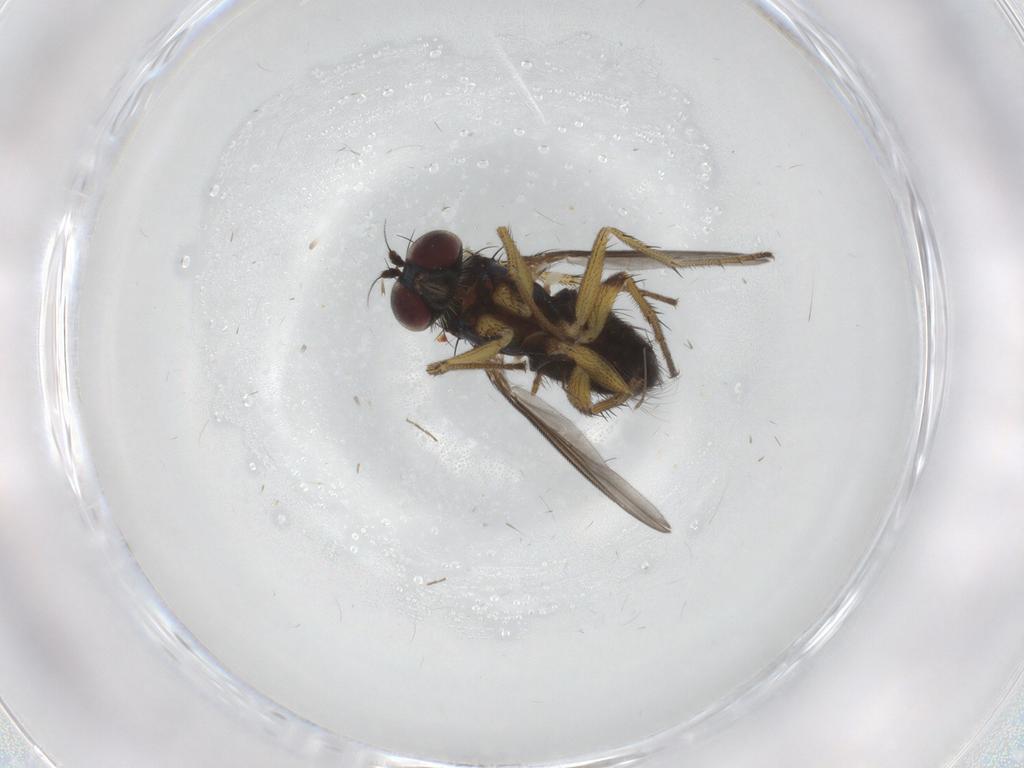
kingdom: Animalia
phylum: Arthropoda
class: Insecta
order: Diptera
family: Dolichopodidae
